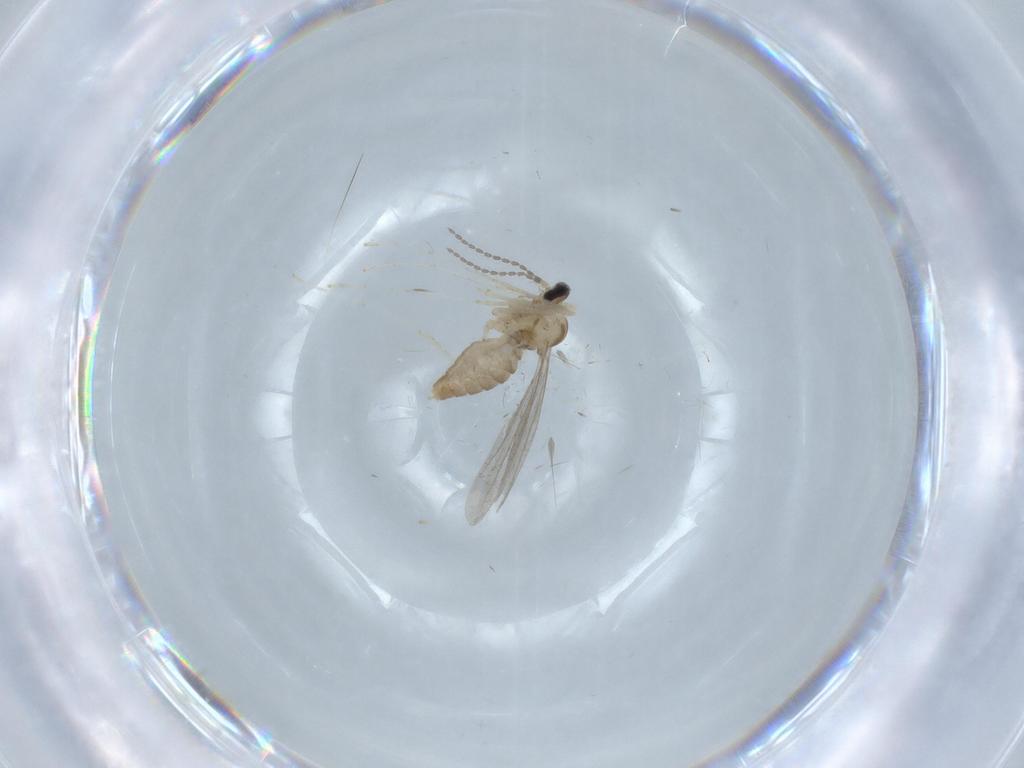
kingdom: Animalia
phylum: Arthropoda
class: Insecta
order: Diptera
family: Cecidomyiidae
